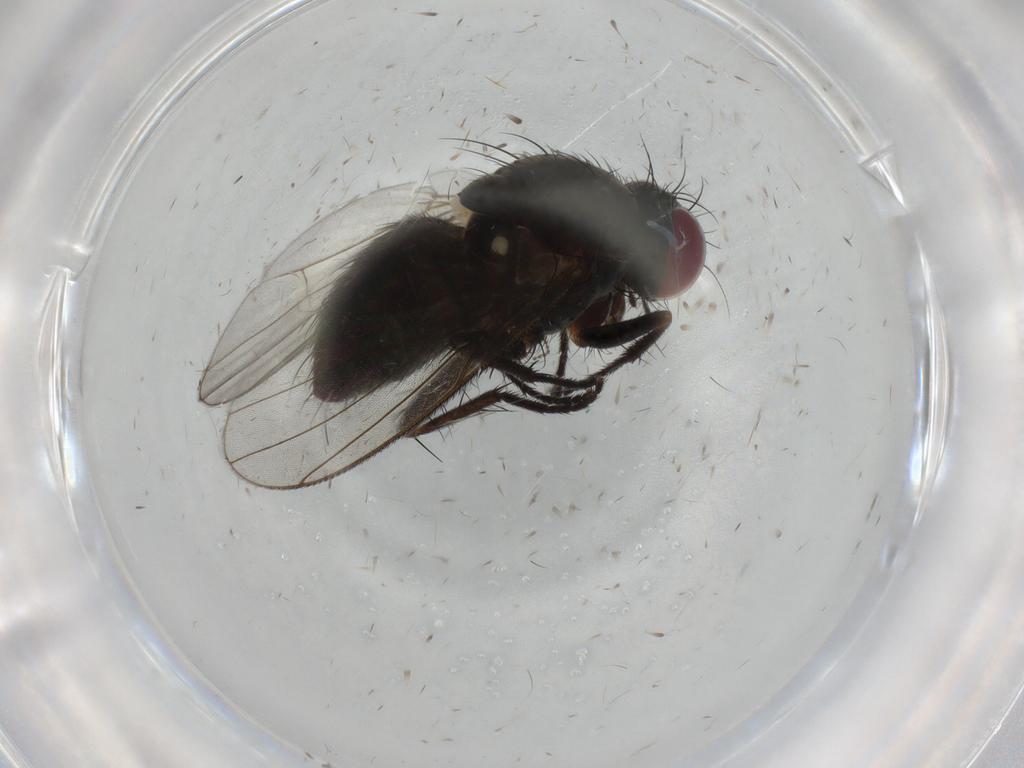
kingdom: Animalia
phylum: Arthropoda
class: Insecta
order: Diptera
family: Muscidae
